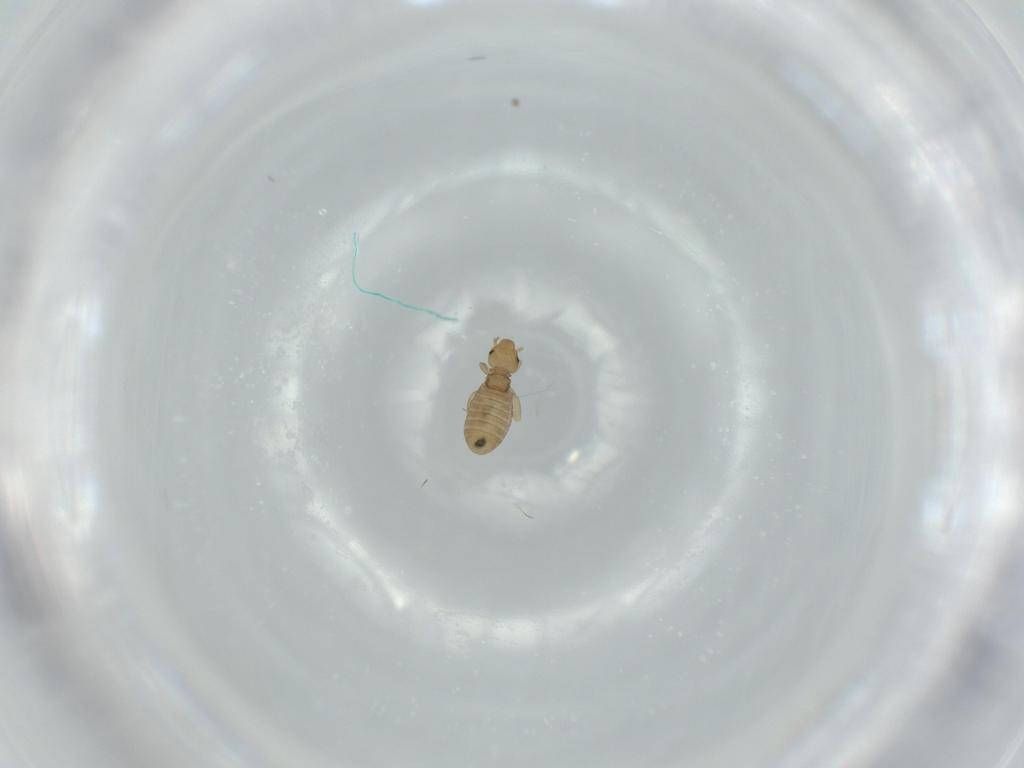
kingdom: Animalia
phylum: Arthropoda
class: Insecta
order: Psocodea
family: Liposcelididae
